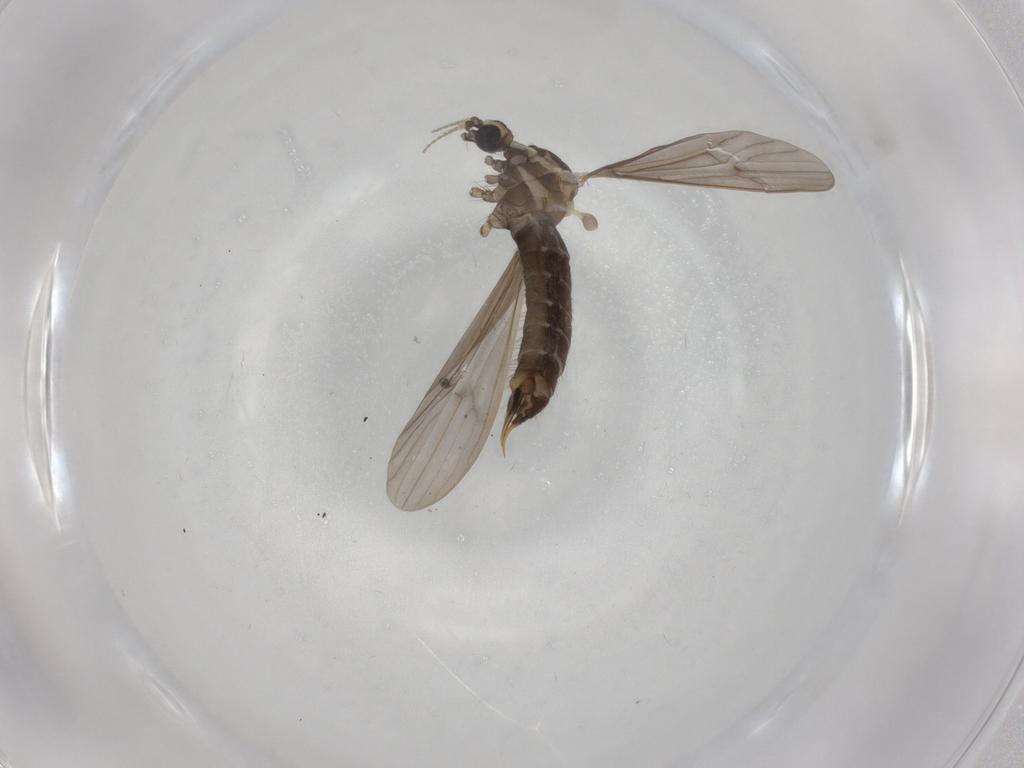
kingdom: Animalia
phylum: Arthropoda
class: Insecta
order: Diptera
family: Limoniidae
